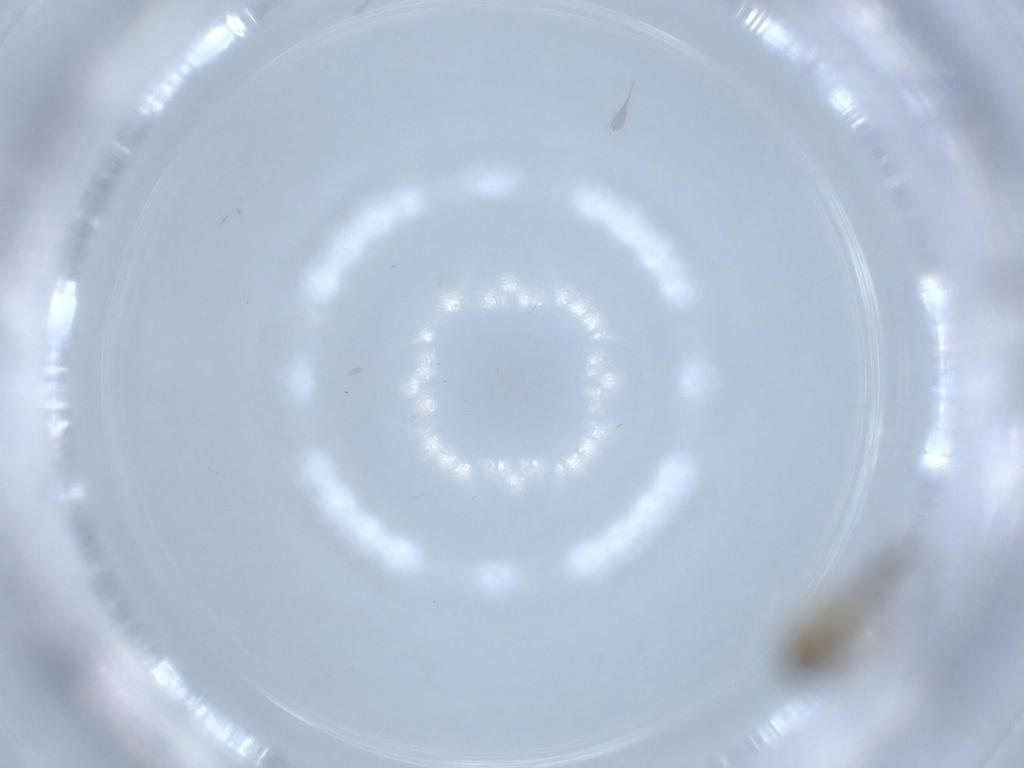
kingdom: Animalia
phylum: Arthropoda
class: Insecta
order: Diptera
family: Ceratopogonidae
